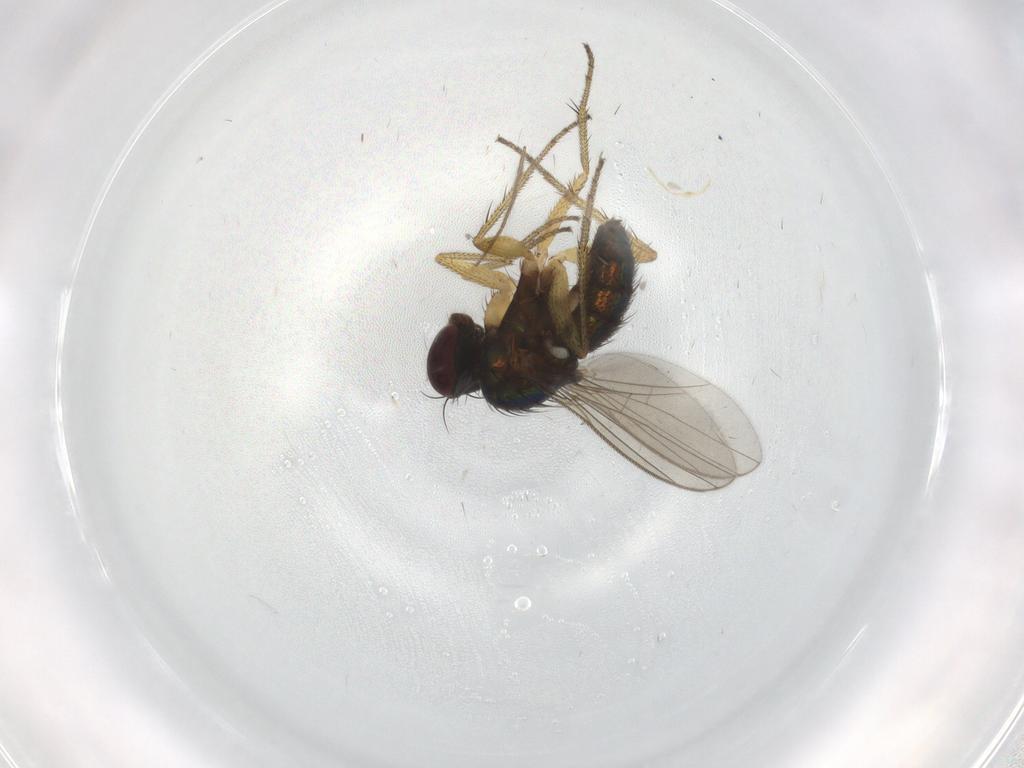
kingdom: Animalia
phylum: Arthropoda
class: Insecta
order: Diptera
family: Dolichopodidae
